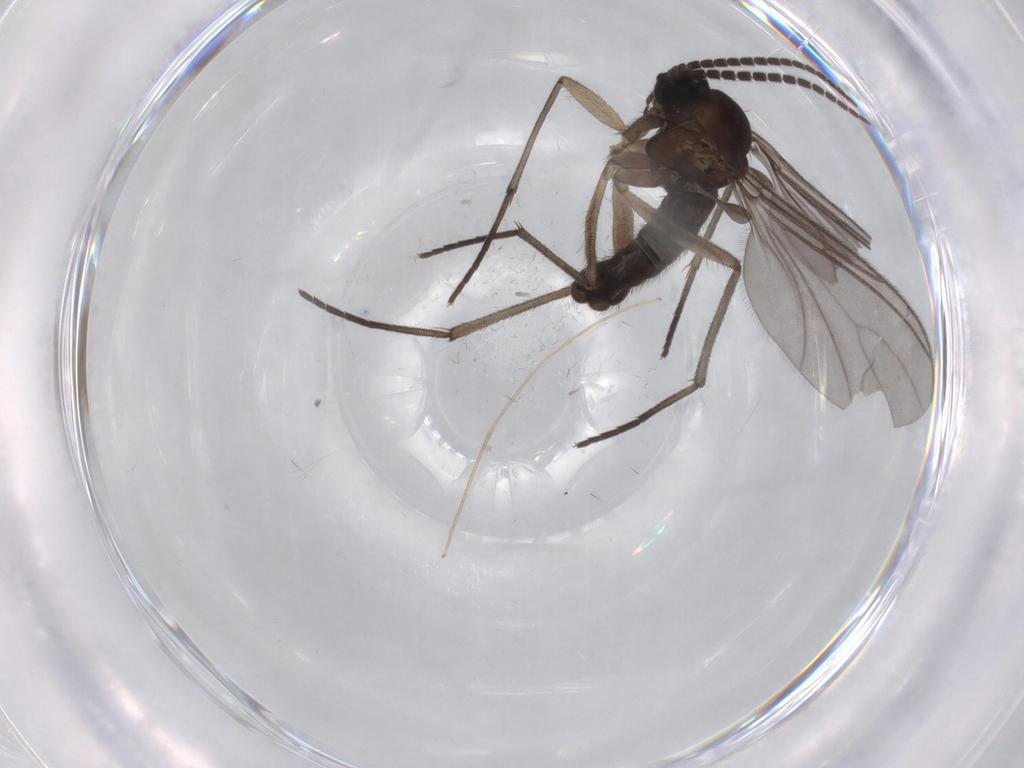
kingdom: Animalia
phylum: Arthropoda
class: Insecta
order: Diptera
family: Sciaridae
